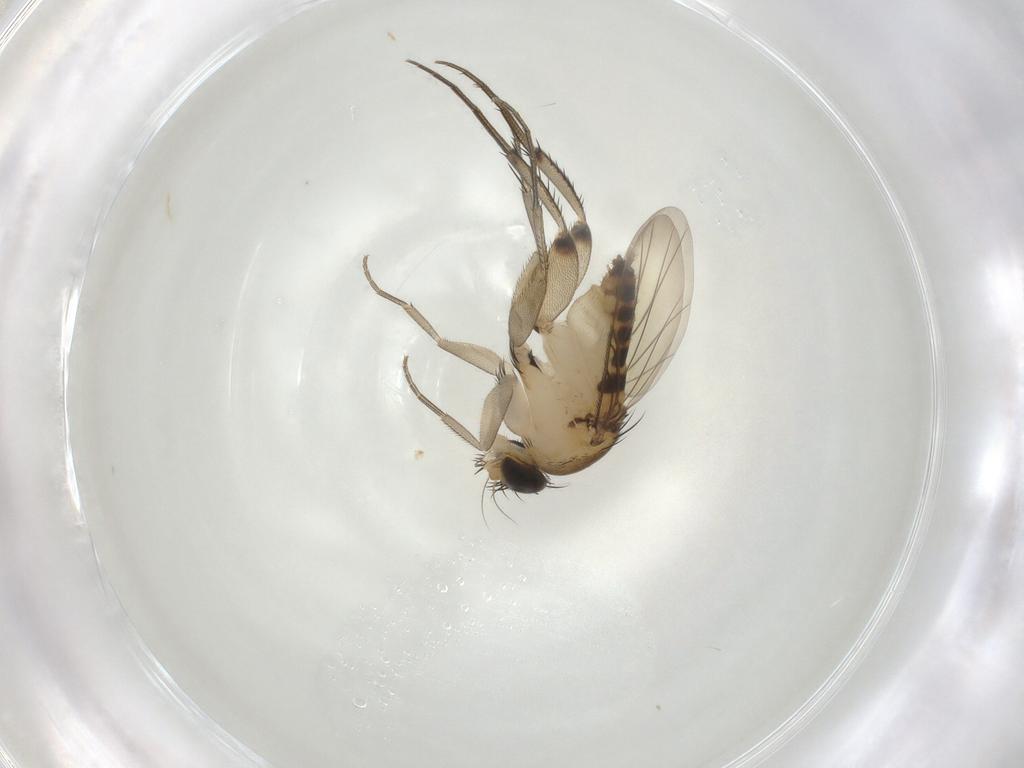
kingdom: Animalia
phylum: Arthropoda
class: Insecta
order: Diptera
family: Phoridae
